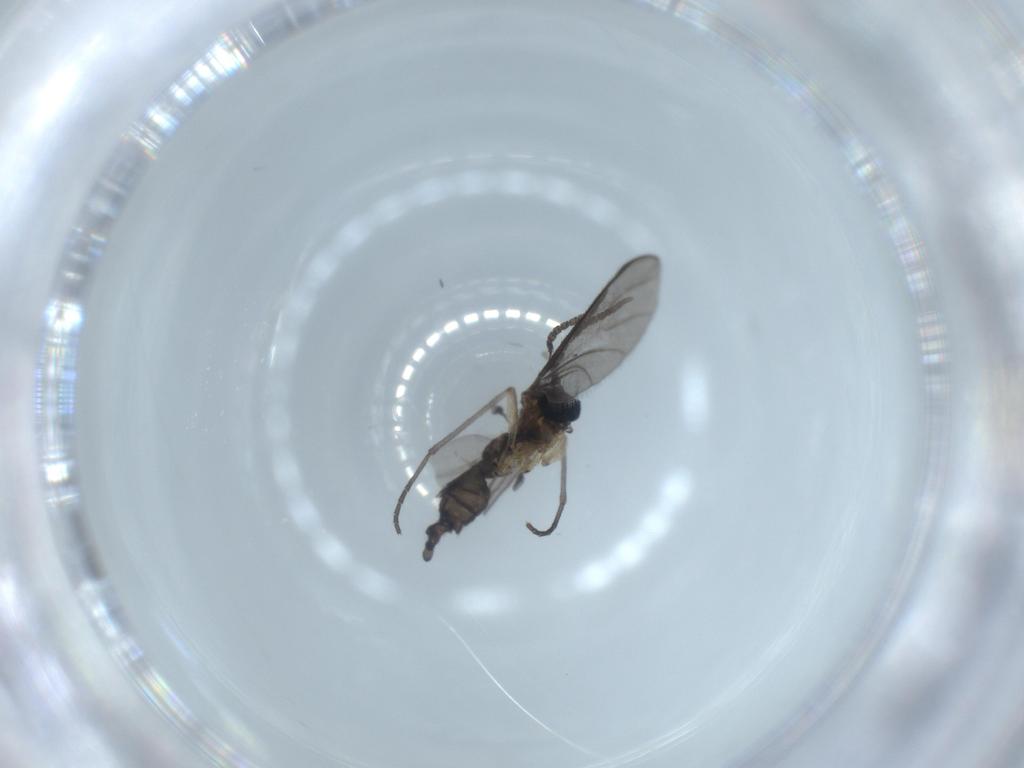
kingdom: Animalia
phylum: Arthropoda
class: Insecta
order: Diptera
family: Sciaridae
